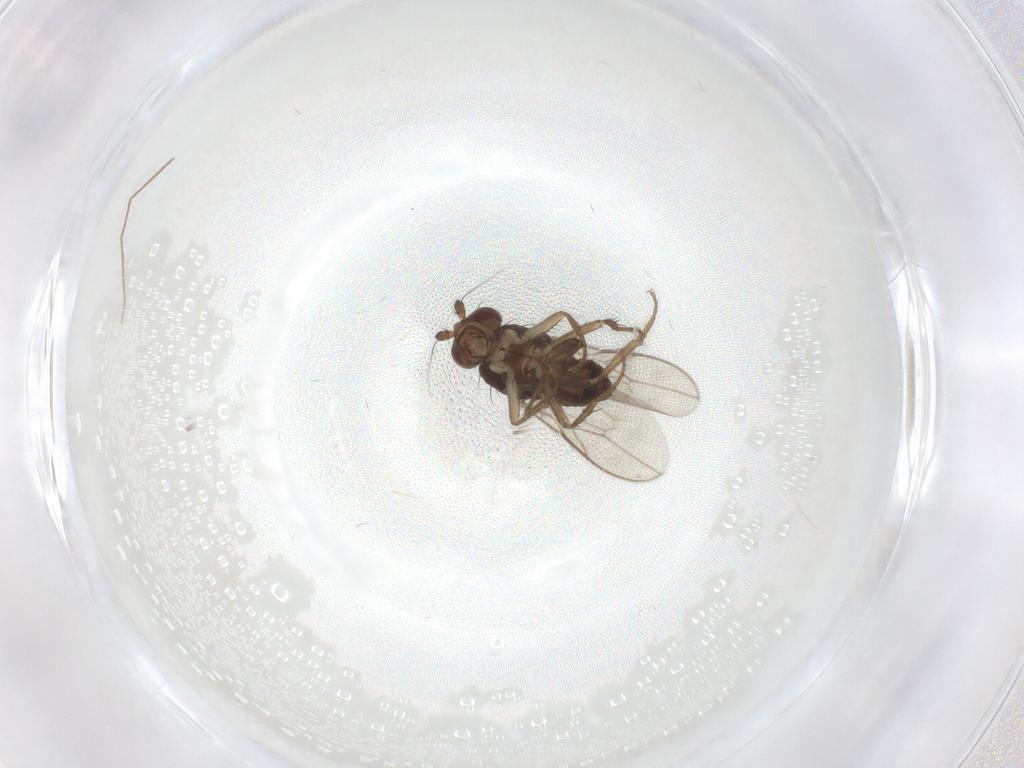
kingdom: Animalia
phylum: Arthropoda
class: Insecta
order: Diptera
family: Sphaeroceridae
